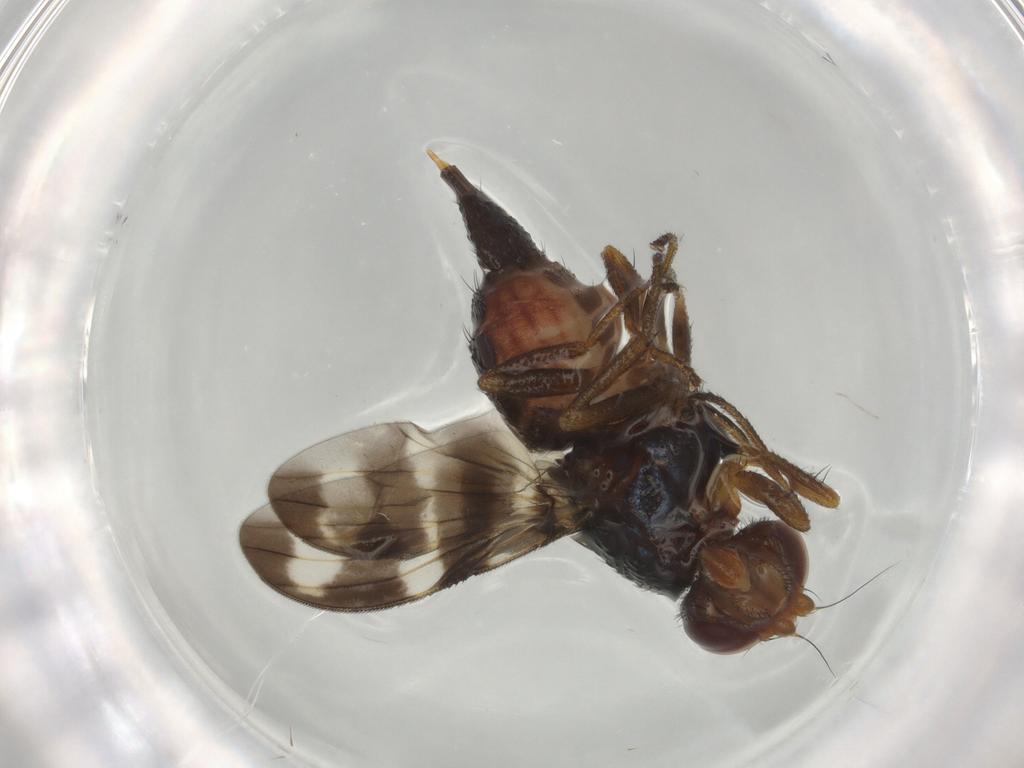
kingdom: Animalia
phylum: Arthropoda
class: Insecta
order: Diptera
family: Ulidiidae
